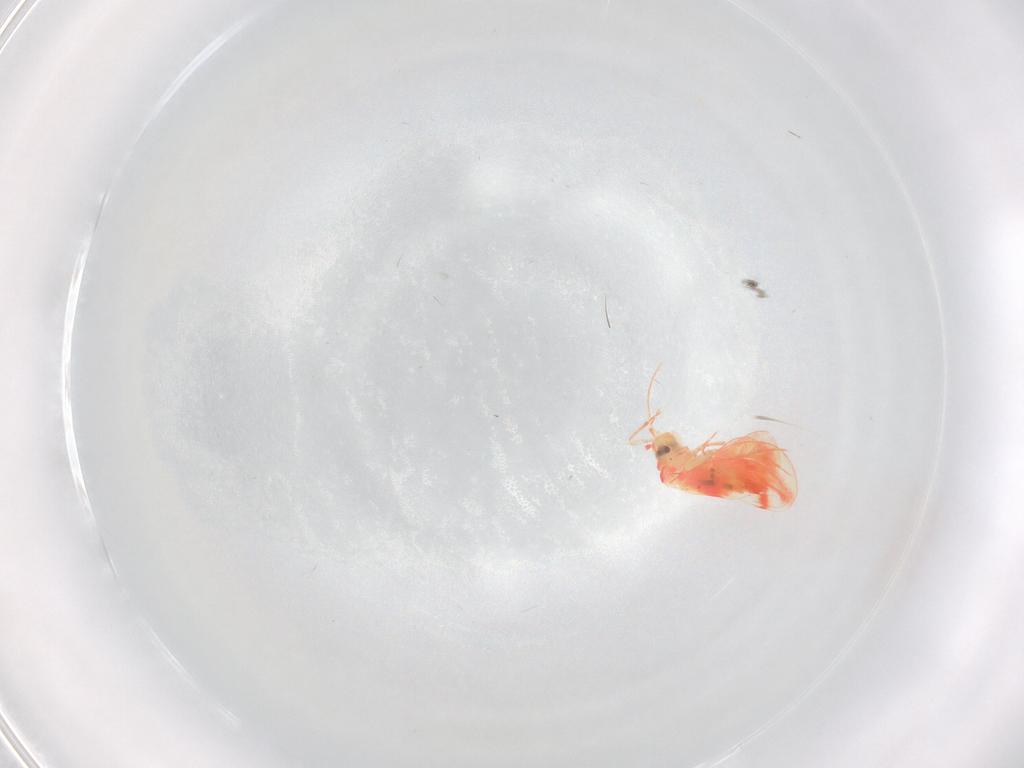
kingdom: Animalia
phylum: Arthropoda
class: Insecta
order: Hemiptera
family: Aleyrodidae
